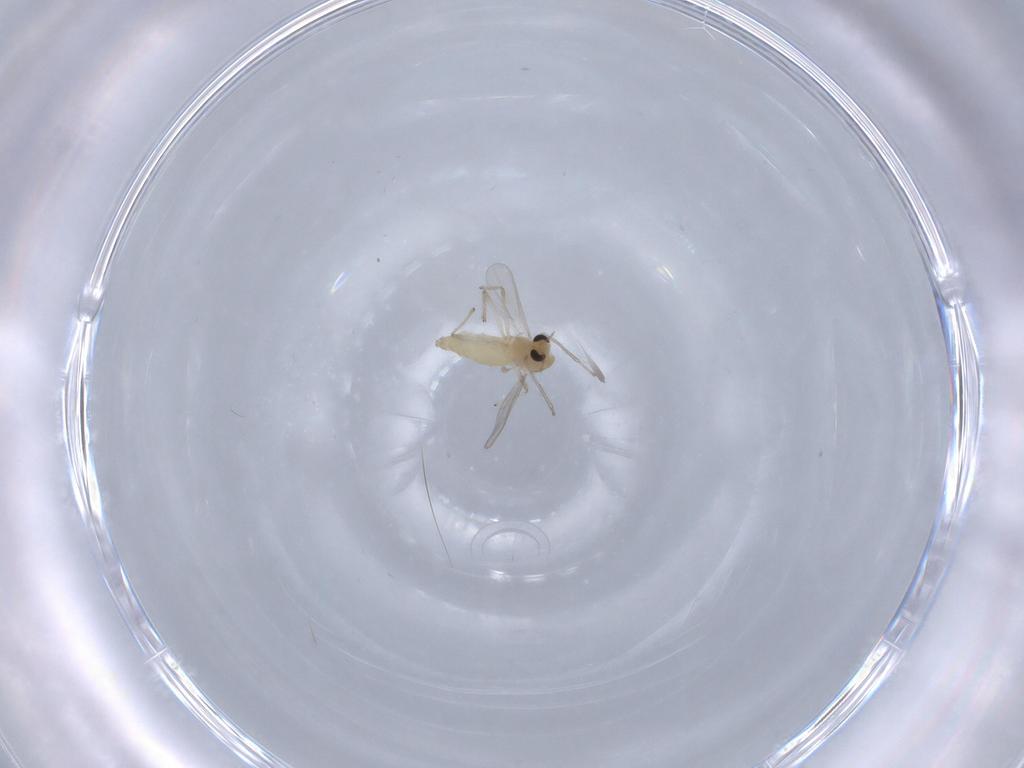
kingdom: Animalia
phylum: Arthropoda
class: Insecta
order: Diptera
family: Chironomidae
